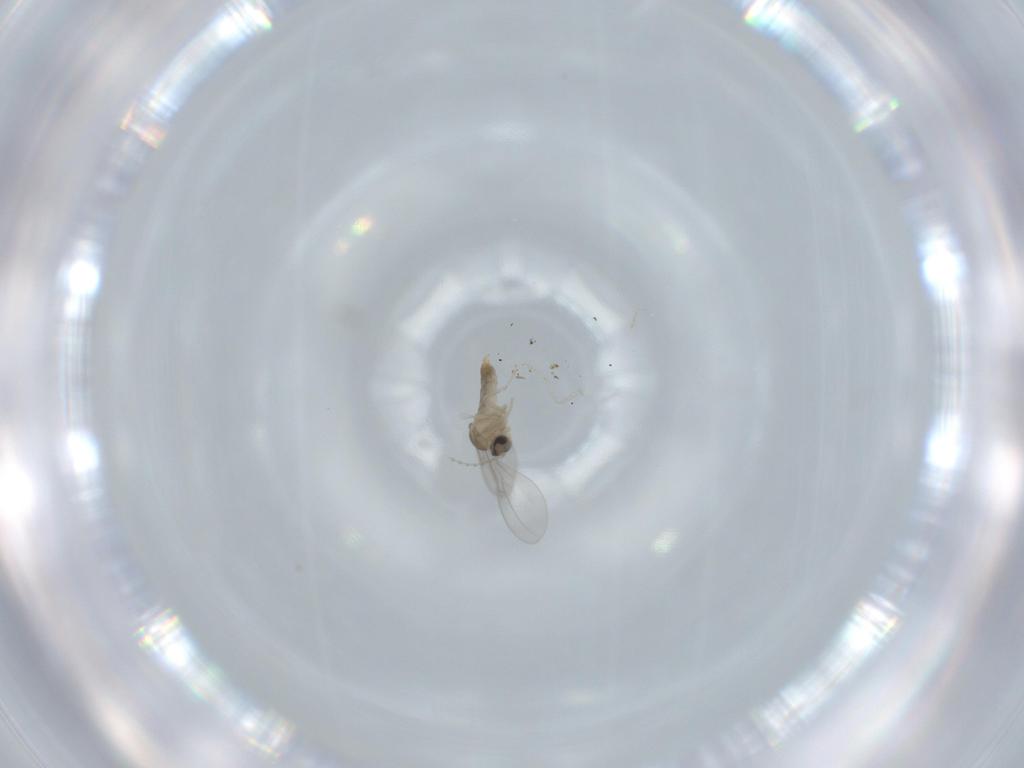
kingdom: Animalia
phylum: Arthropoda
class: Insecta
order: Diptera
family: Cecidomyiidae
